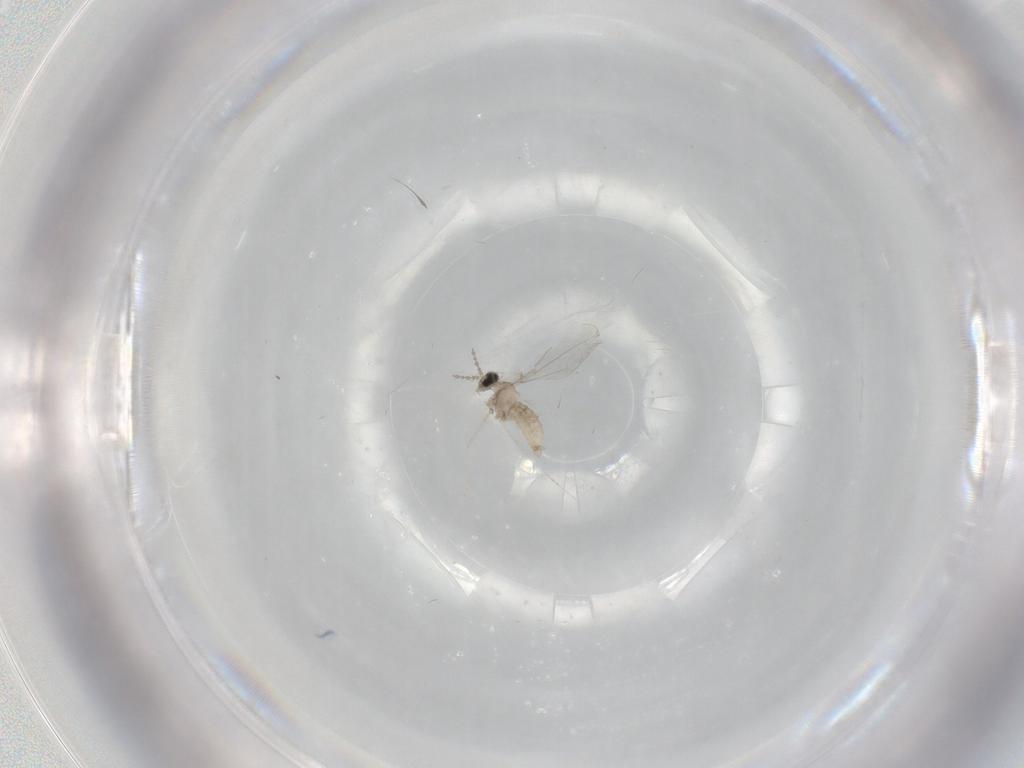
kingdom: Animalia
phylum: Arthropoda
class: Insecta
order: Diptera
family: Cecidomyiidae
